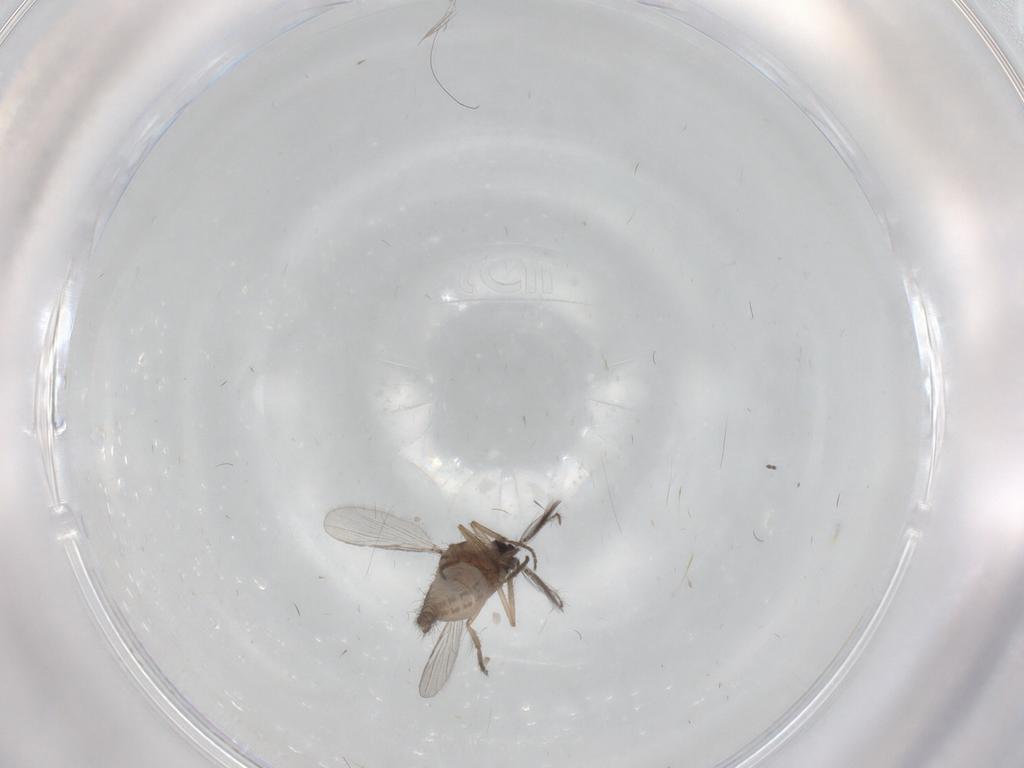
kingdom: Animalia
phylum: Arthropoda
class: Insecta
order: Diptera
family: Ceratopogonidae
